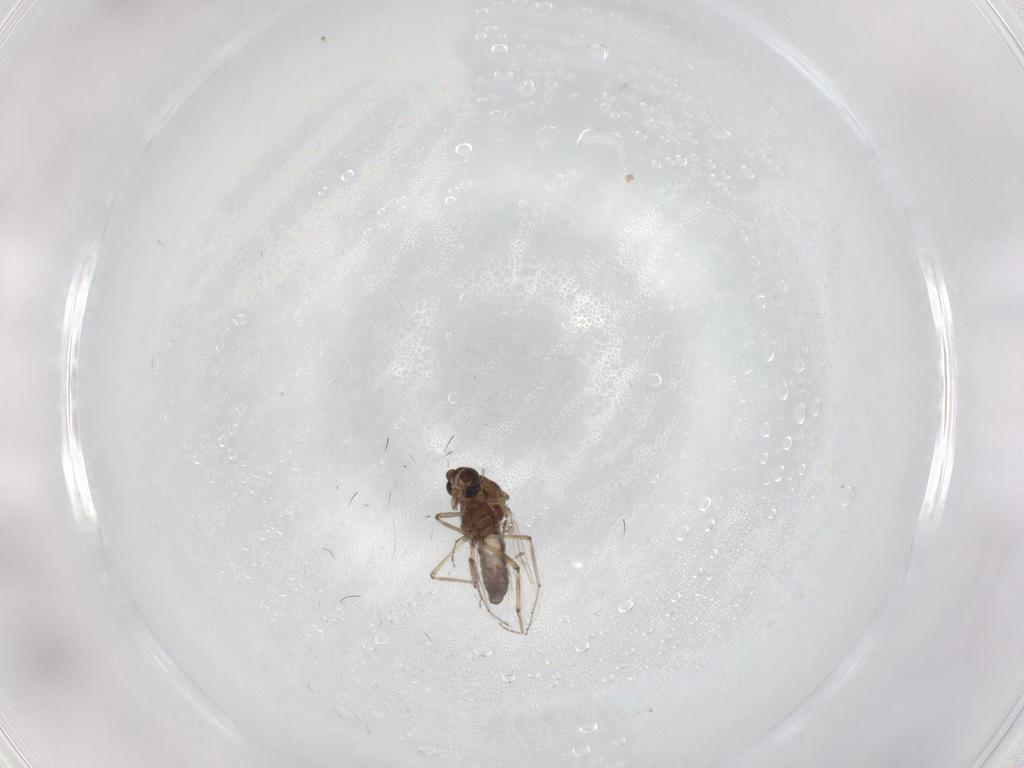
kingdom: Animalia
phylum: Arthropoda
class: Insecta
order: Diptera
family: Ceratopogonidae
